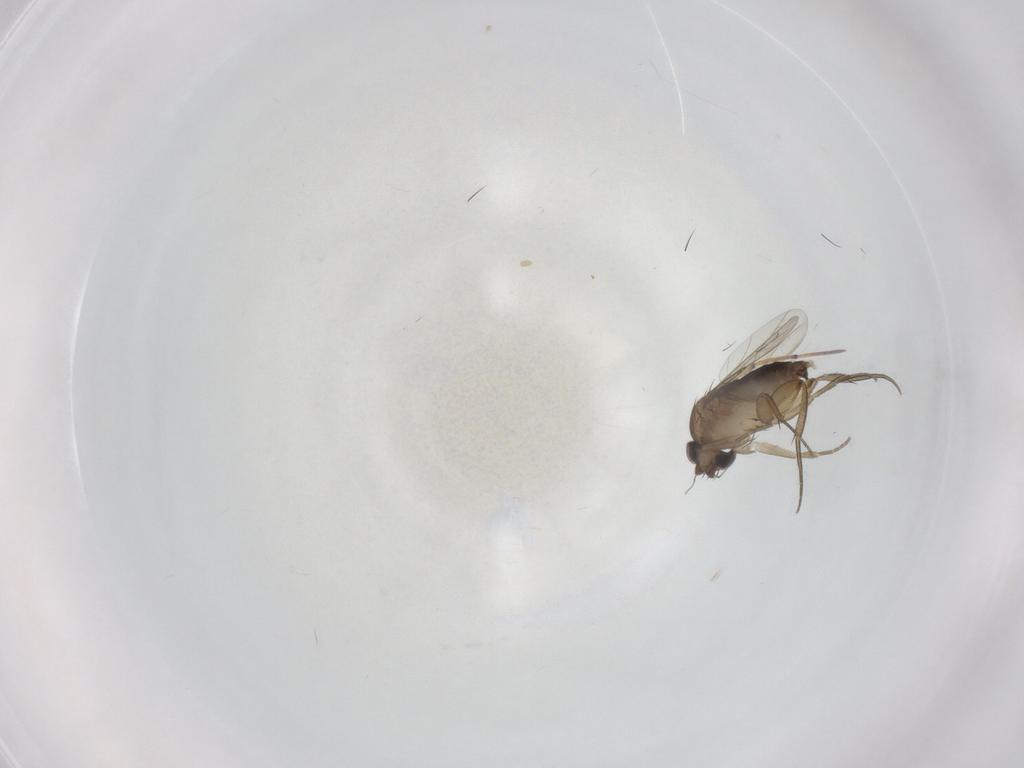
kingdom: Animalia
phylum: Arthropoda
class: Insecta
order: Diptera
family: Phoridae
